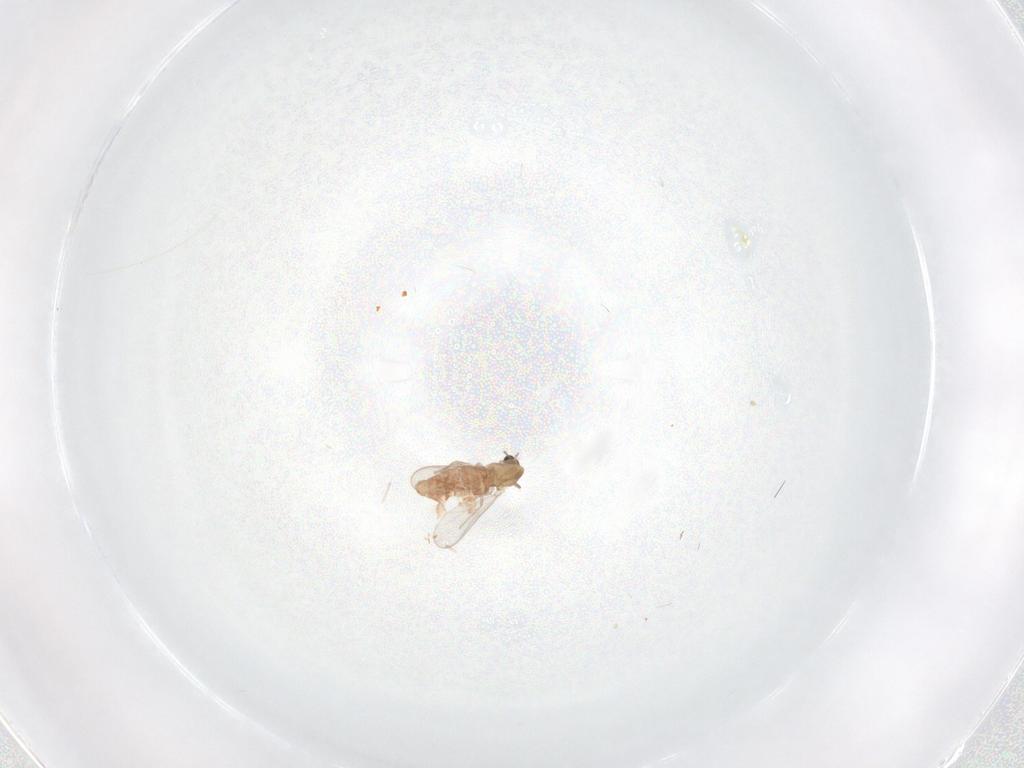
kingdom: Animalia
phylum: Arthropoda
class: Insecta
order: Diptera
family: Chironomidae
